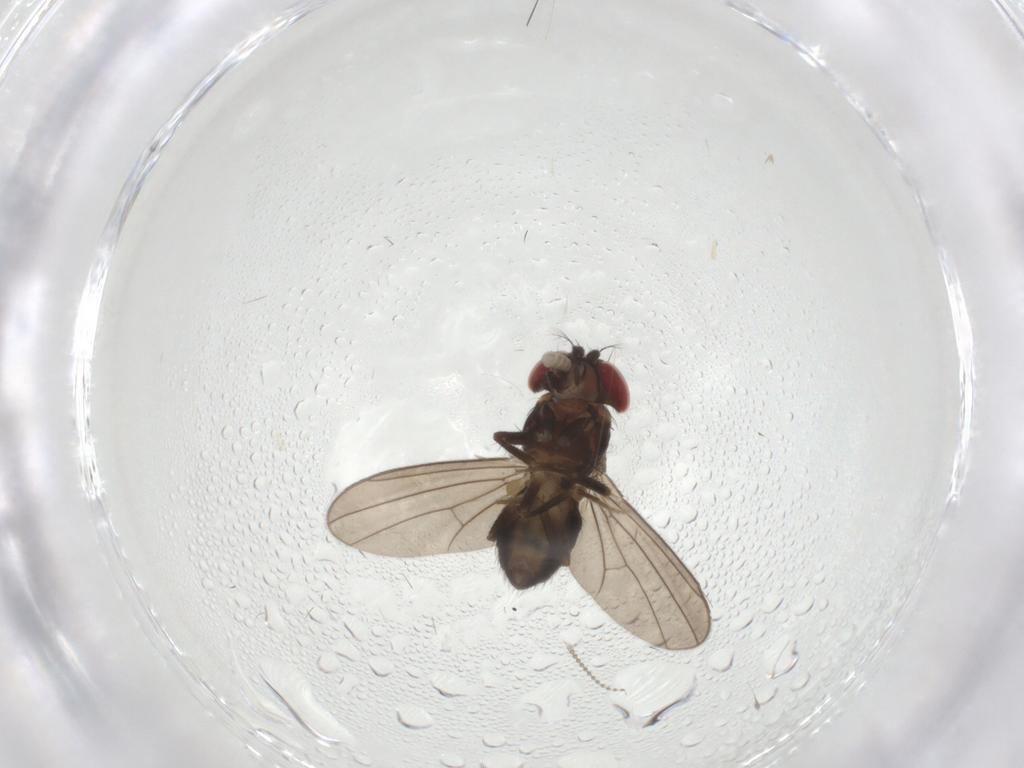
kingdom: Animalia
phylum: Arthropoda
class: Insecta
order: Diptera
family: Drosophilidae
